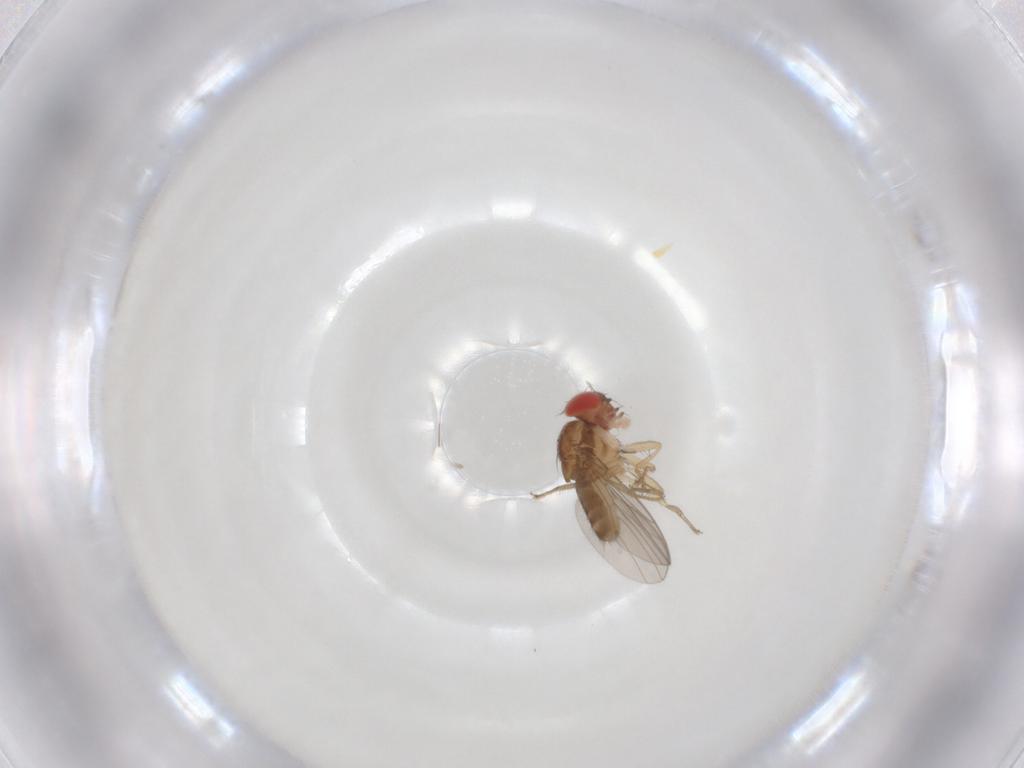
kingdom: Animalia
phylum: Arthropoda
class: Insecta
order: Diptera
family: Drosophilidae
